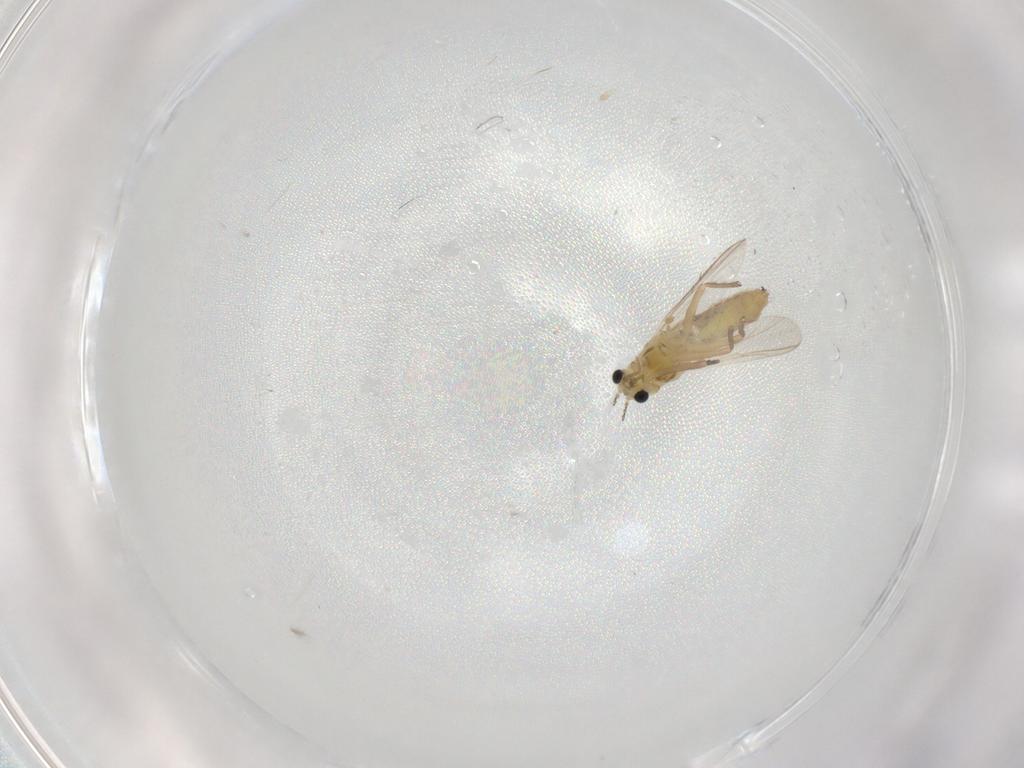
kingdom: Animalia
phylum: Arthropoda
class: Insecta
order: Diptera
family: Chironomidae
